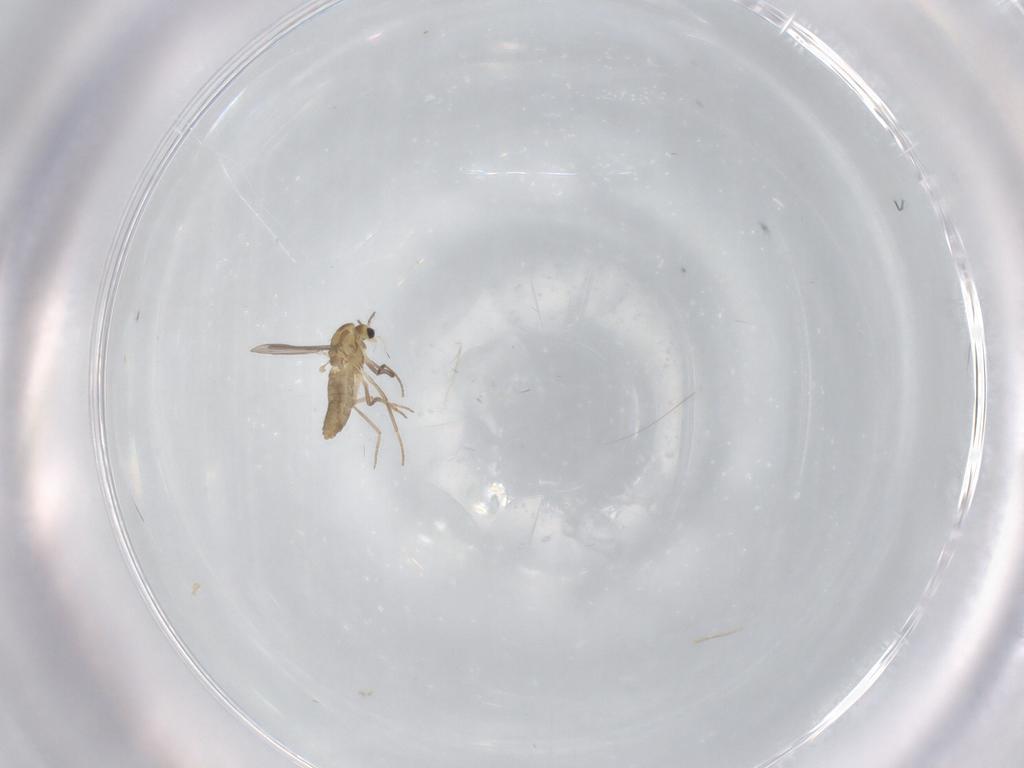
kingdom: Animalia
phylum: Arthropoda
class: Insecta
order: Diptera
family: Chironomidae
